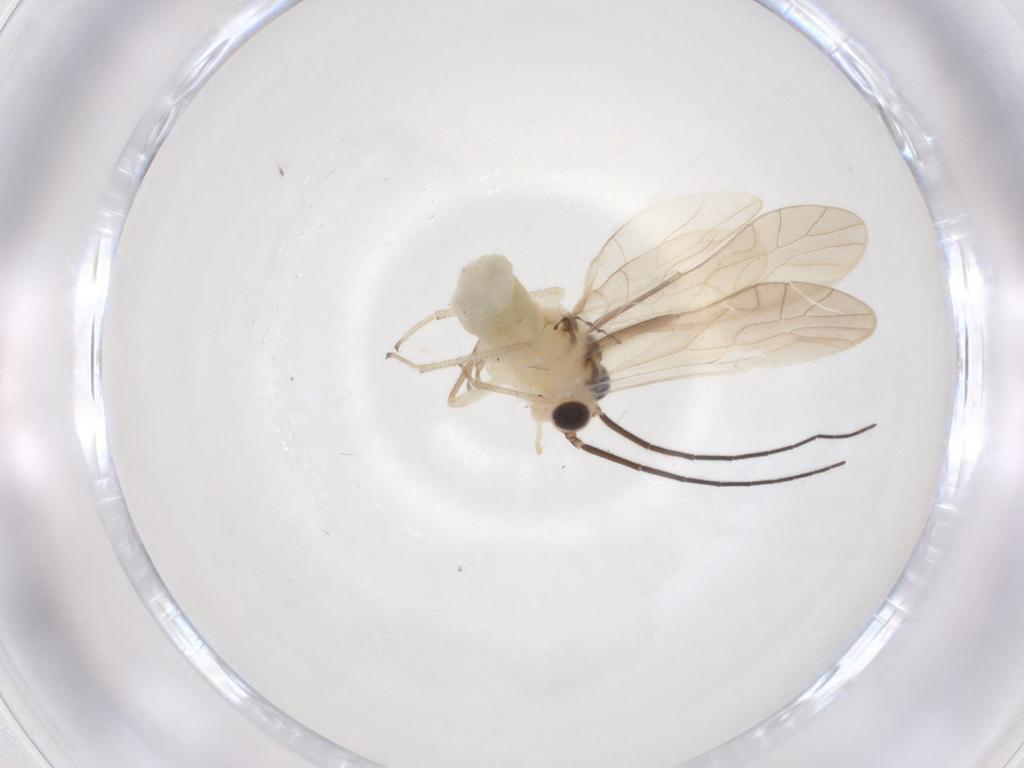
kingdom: Animalia
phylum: Arthropoda
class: Insecta
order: Psocodea
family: Caeciliusidae
